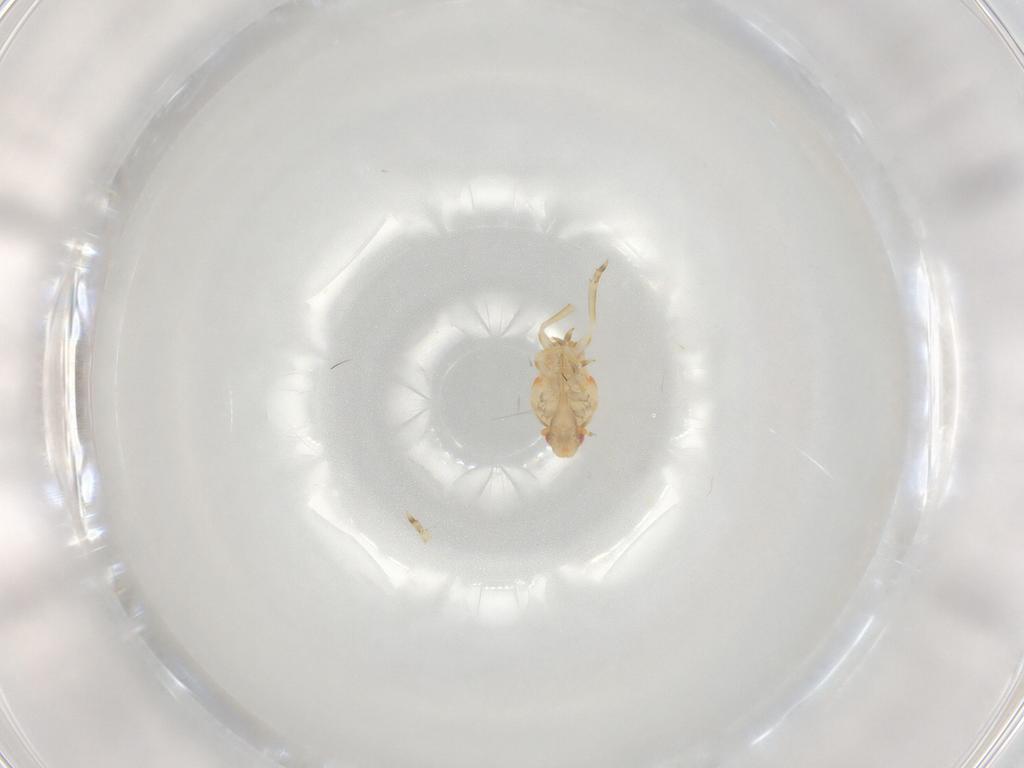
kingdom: Animalia
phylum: Arthropoda
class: Insecta
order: Hemiptera
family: Flatidae
